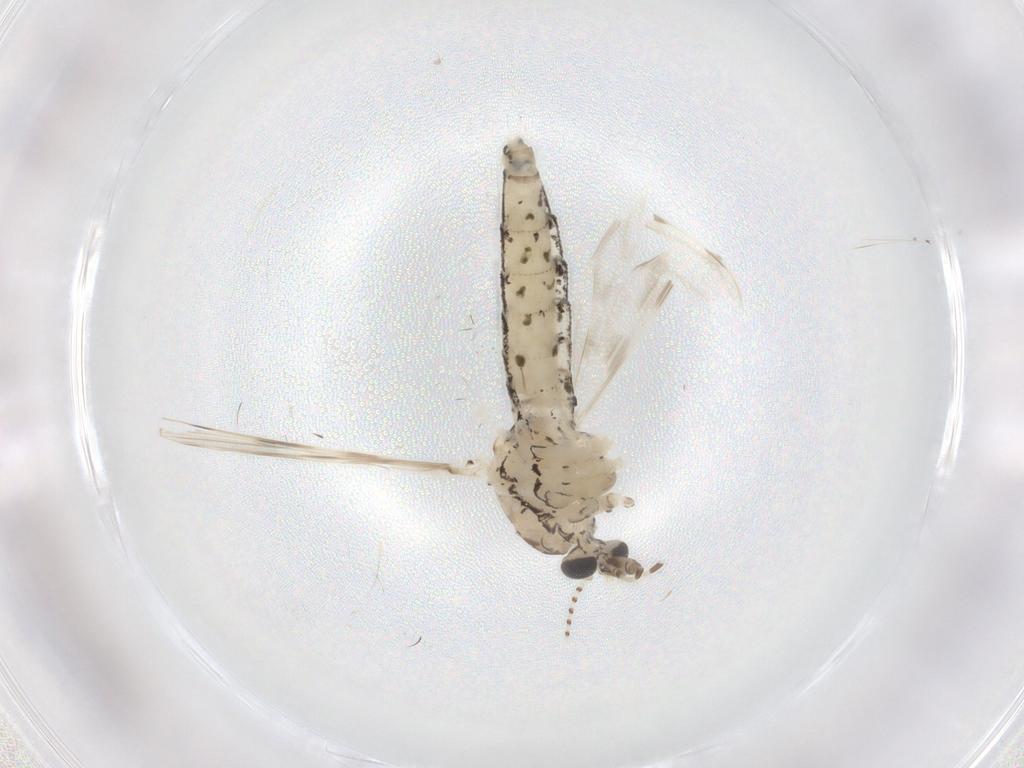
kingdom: Animalia
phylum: Arthropoda
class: Insecta
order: Diptera
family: Chaoboridae
